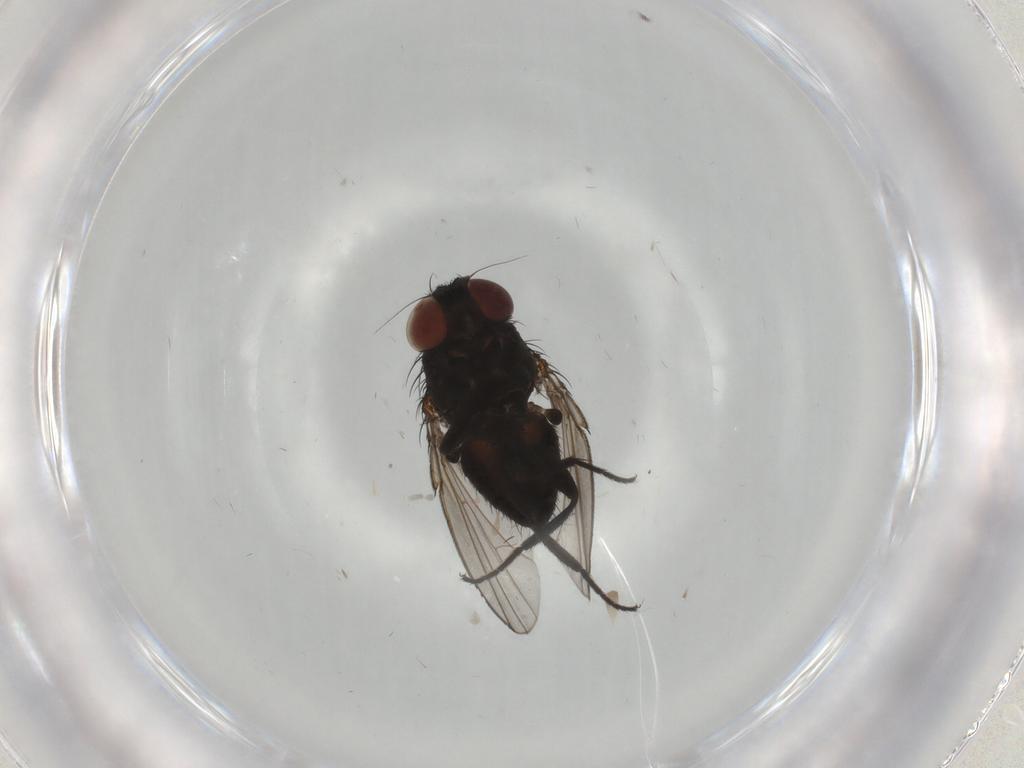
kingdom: Animalia
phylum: Arthropoda
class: Insecta
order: Diptera
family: Milichiidae
